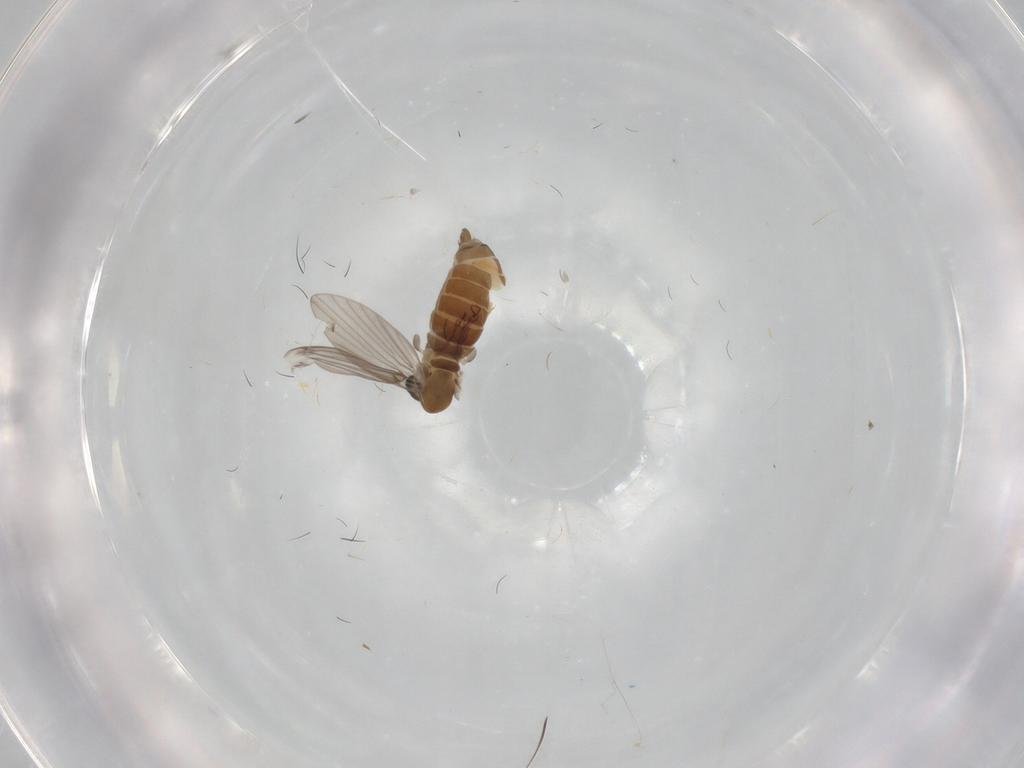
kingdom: Animalia
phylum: Arthropoda
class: Insecta
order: Diptera
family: Psychodidae
